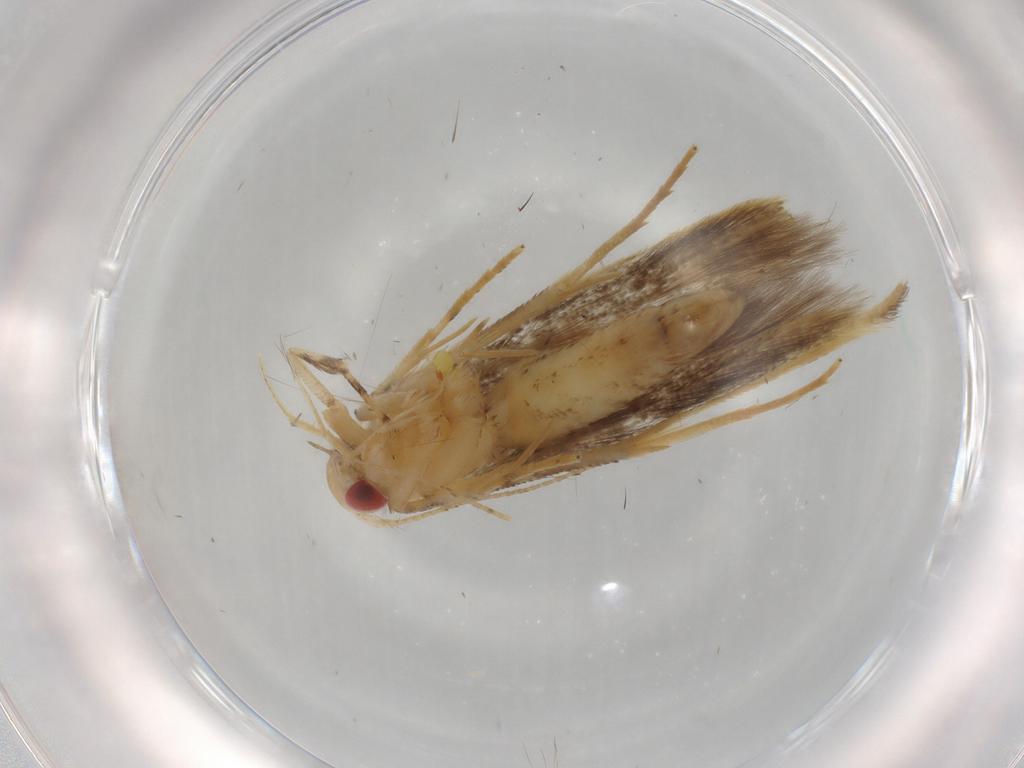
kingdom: Animalia
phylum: Arthropoda
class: Insecta
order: Lepidoptera
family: Cosmopterigidae
